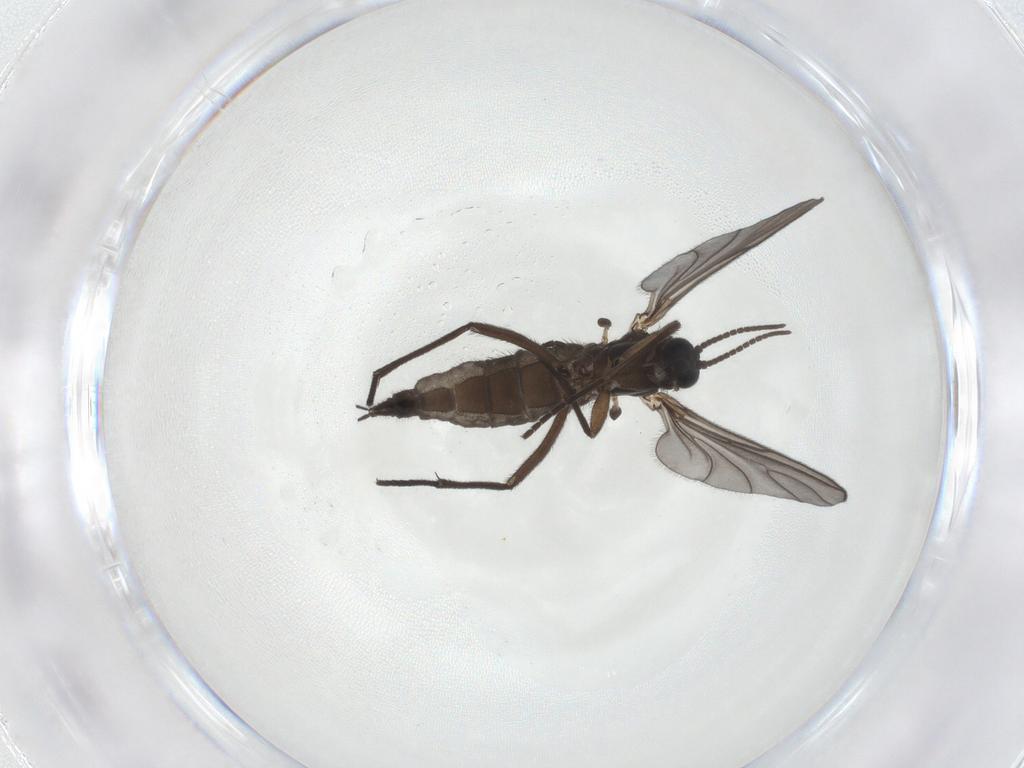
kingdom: Animalia
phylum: Arthropoda
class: Insecta
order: Diptera
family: Sciaridae
